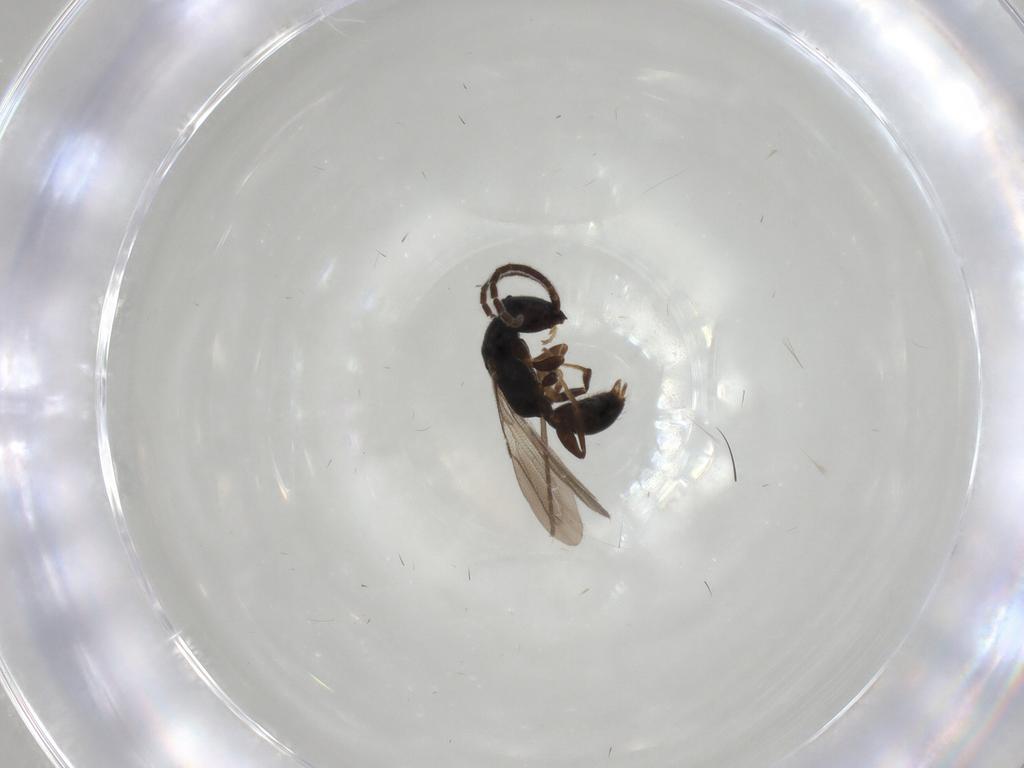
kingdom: Animalia
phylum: Arthropoda
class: Insecta
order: Hymenoptera
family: Bethylidae
